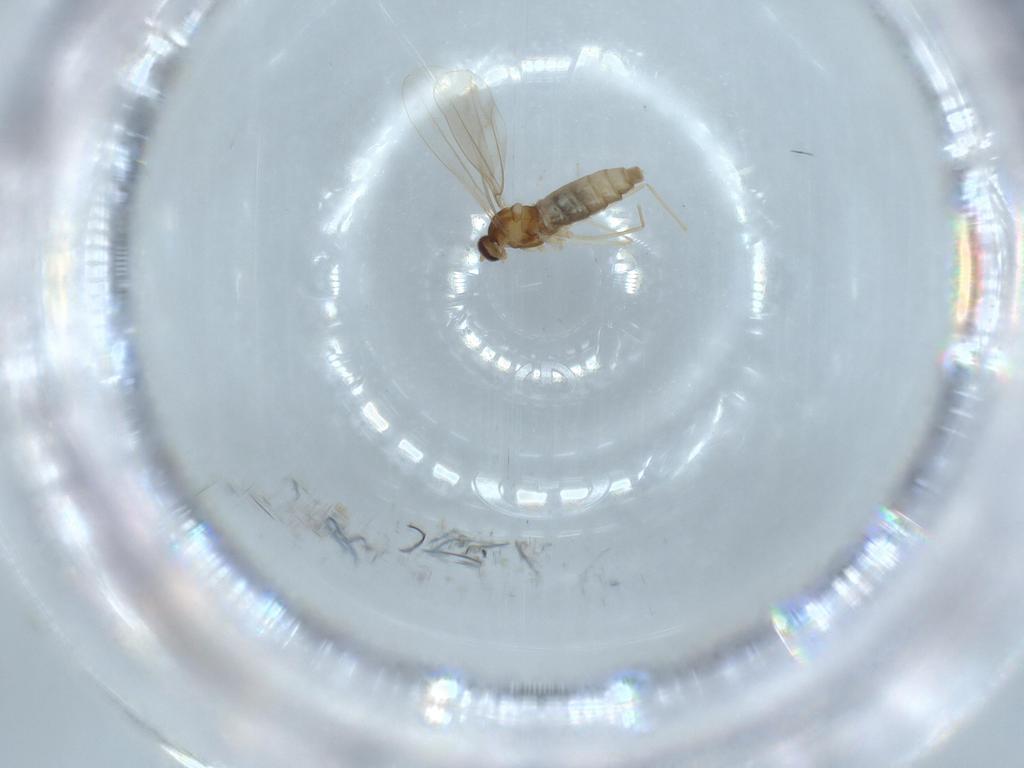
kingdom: Animalia
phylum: Arthropoda
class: Insecta
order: Diptera
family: Cecidomyiidae
